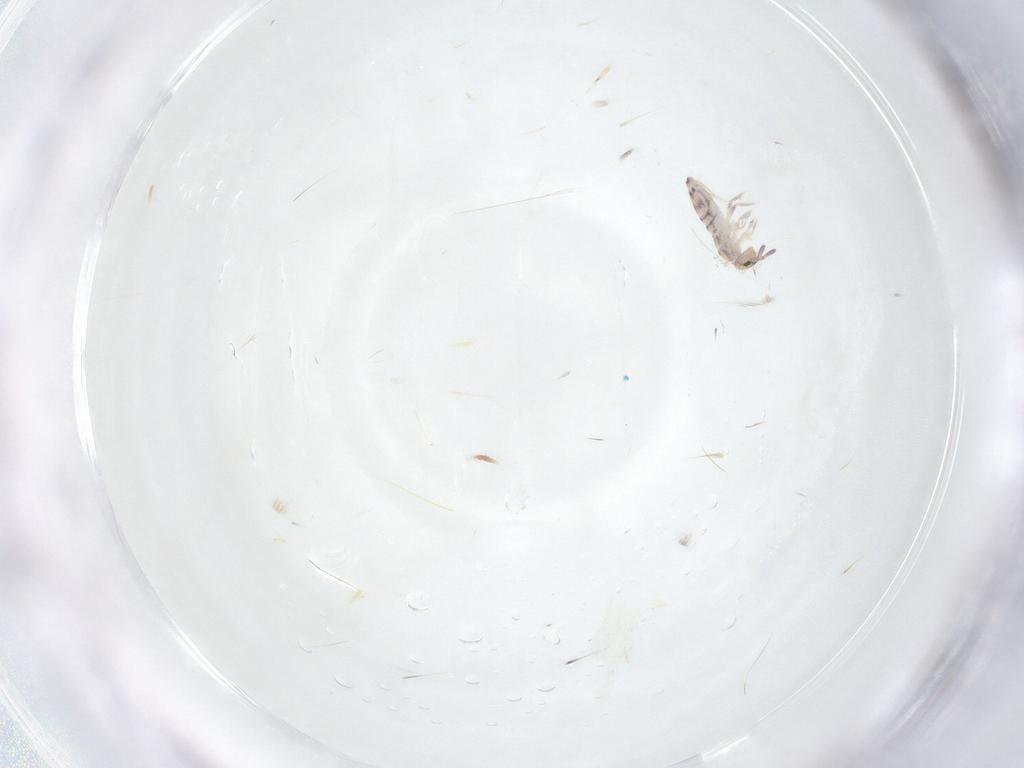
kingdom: Animalia
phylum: Arthropoda
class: Collembola
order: Entomobryomorpha
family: Entomobryidae
